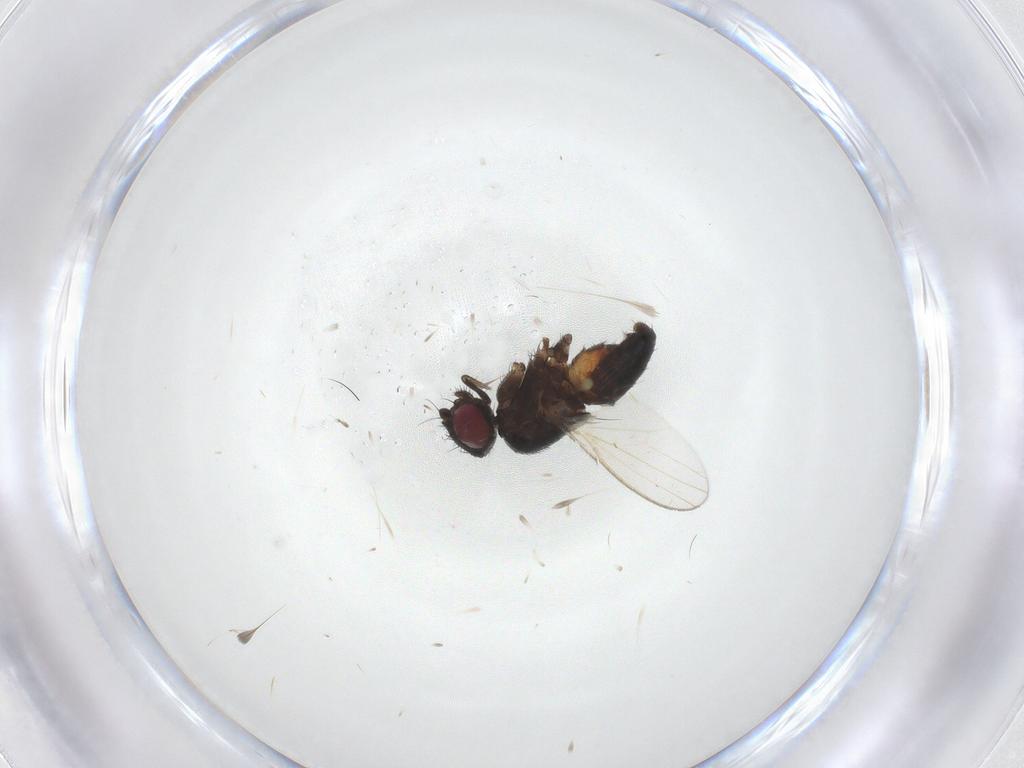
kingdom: Animalia
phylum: Arthropoda
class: Insecta
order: Diptera
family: Milichiidae
